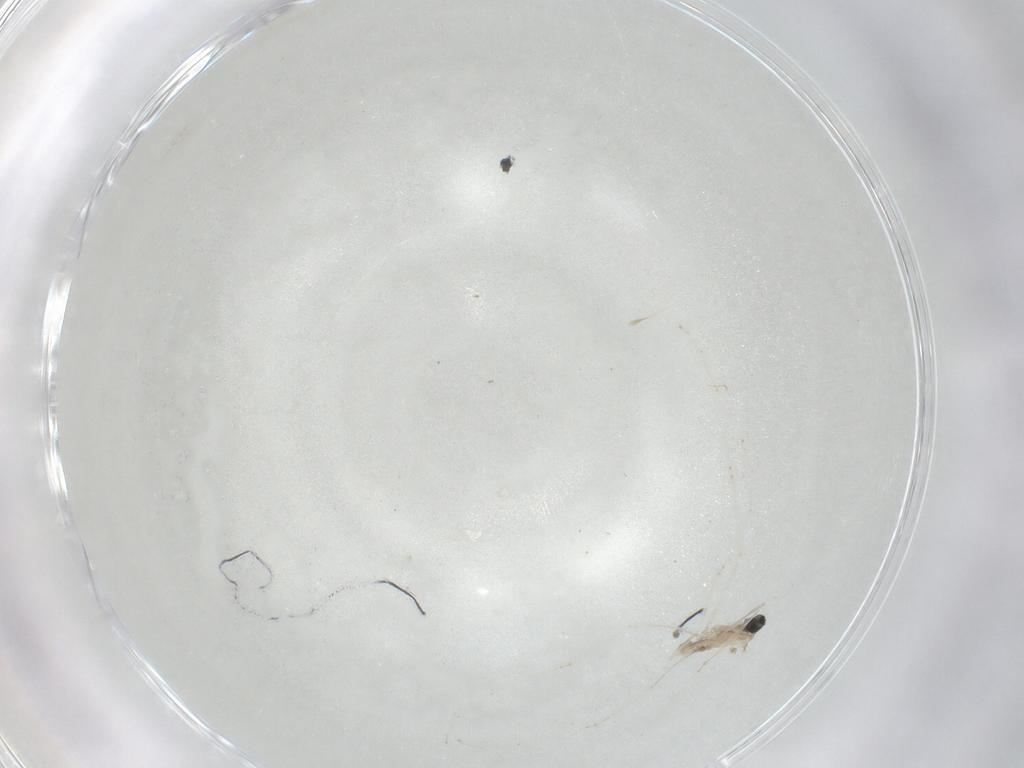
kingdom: Animalia
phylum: Arthropoda
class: Insecta
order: Diptera
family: Cecidomyiidae
